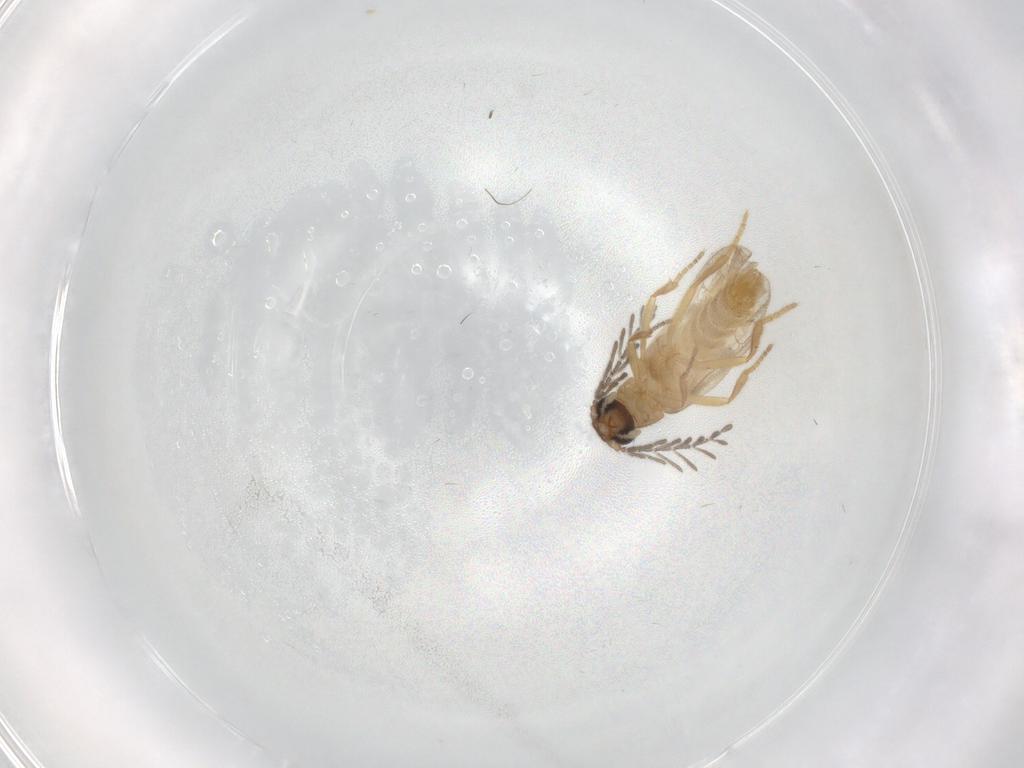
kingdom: Animalia
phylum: Arthropoda
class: Insecta
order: Diptera
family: Phoridae
